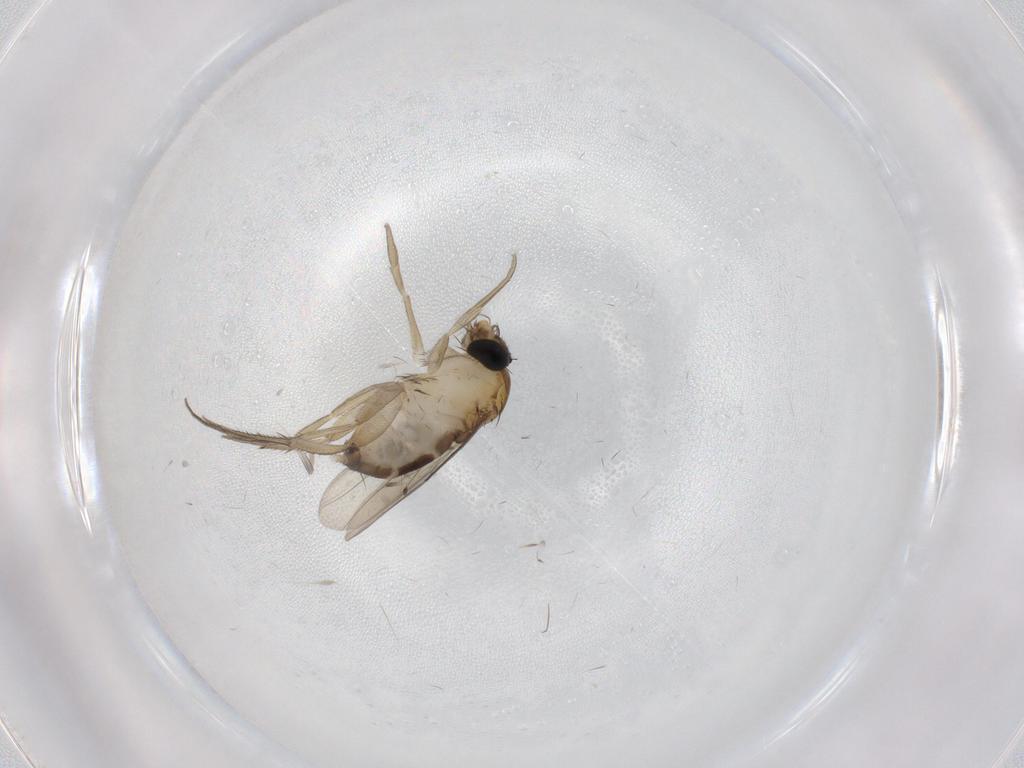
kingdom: Animalia
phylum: Arthropoda
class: Insecta
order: Diptera
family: Phoridae
